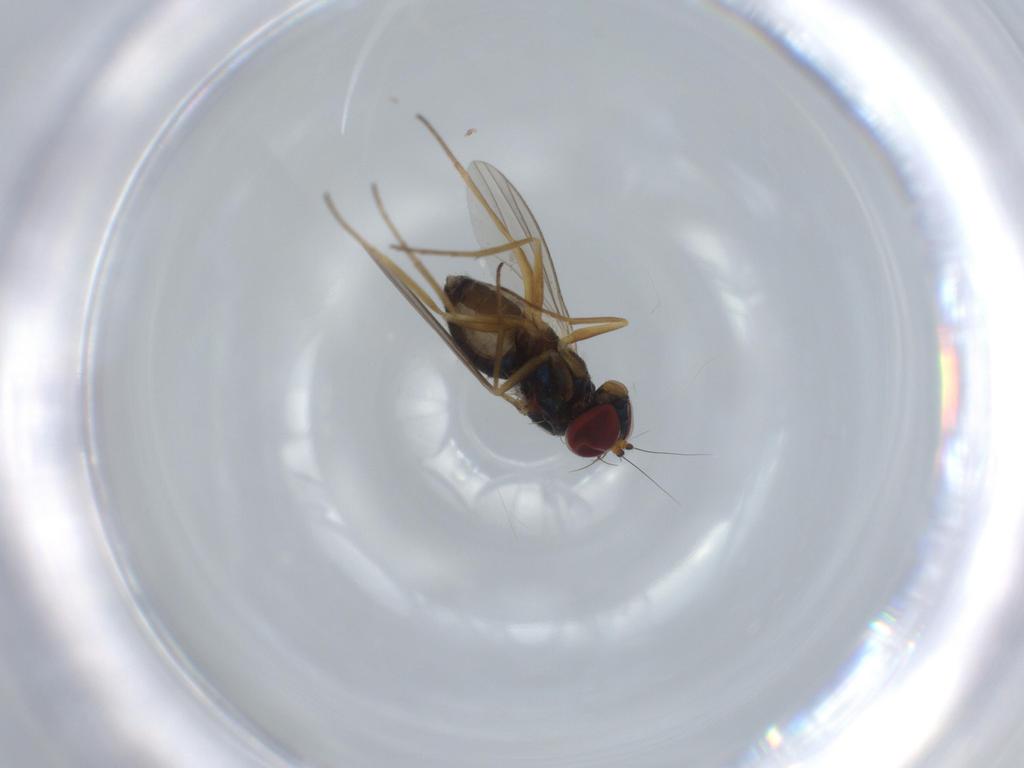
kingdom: Animalia
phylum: Arthropoda
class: Insecta
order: Diptera
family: Dolichopodidae
